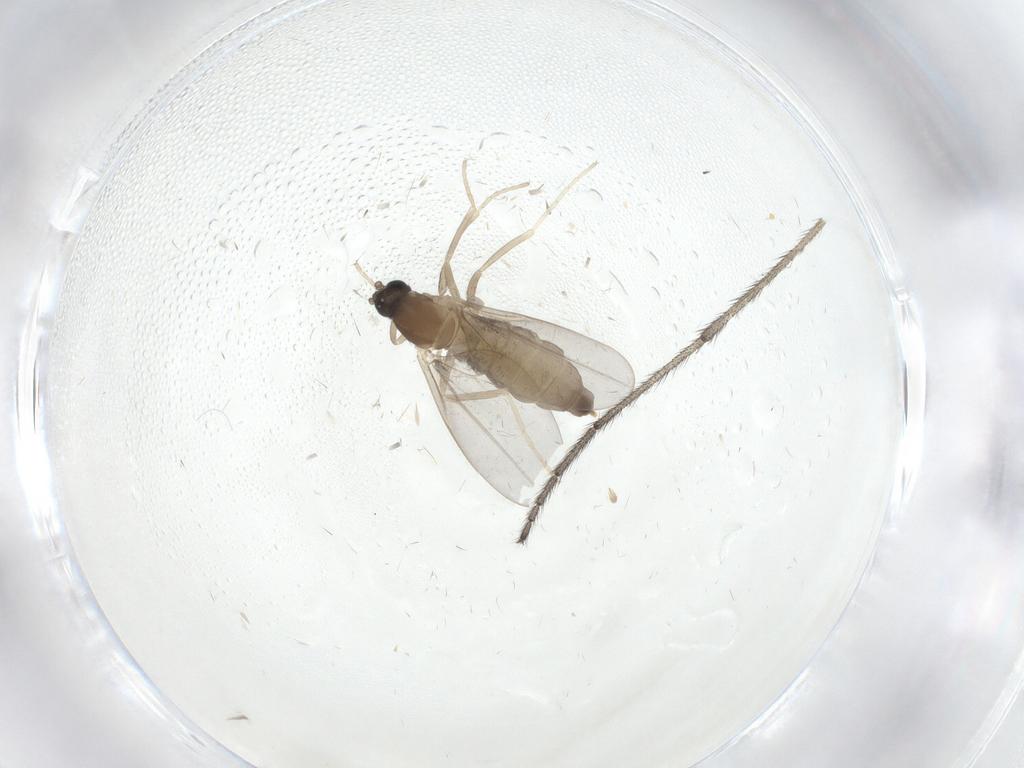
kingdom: Animalia
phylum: Arthropoda
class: Insecta
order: Diptera
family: Cecidomyiidae
